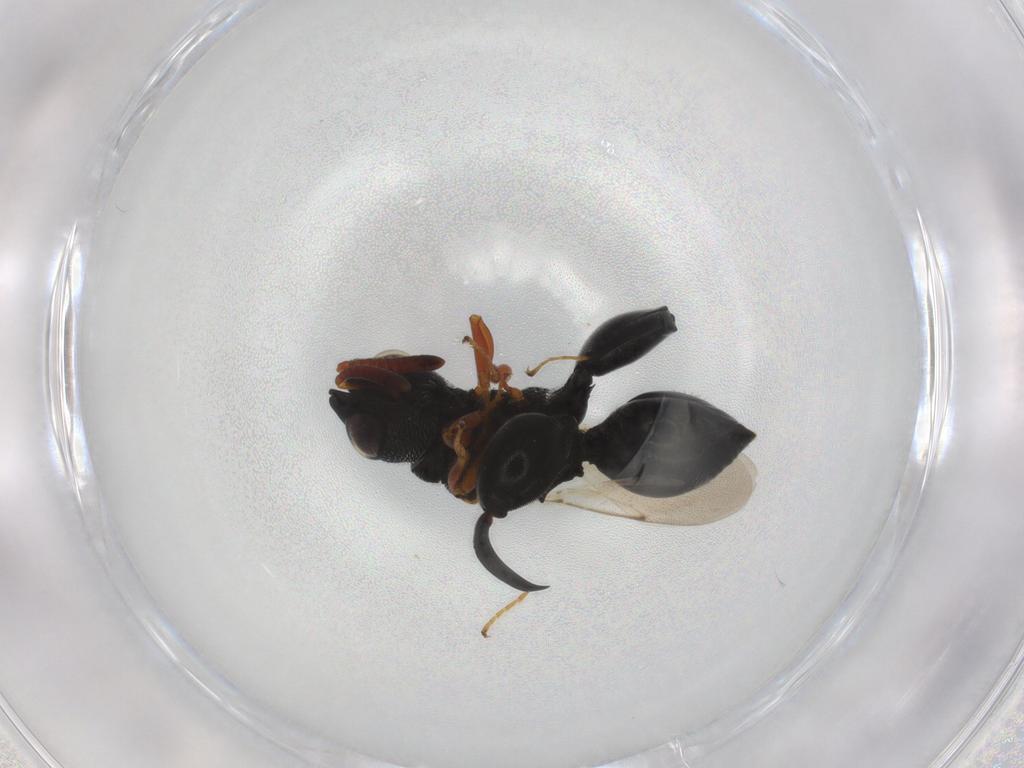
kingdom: Animalia
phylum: Arthropoda
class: Insecta
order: Hymenoptera
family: Chalcididae
